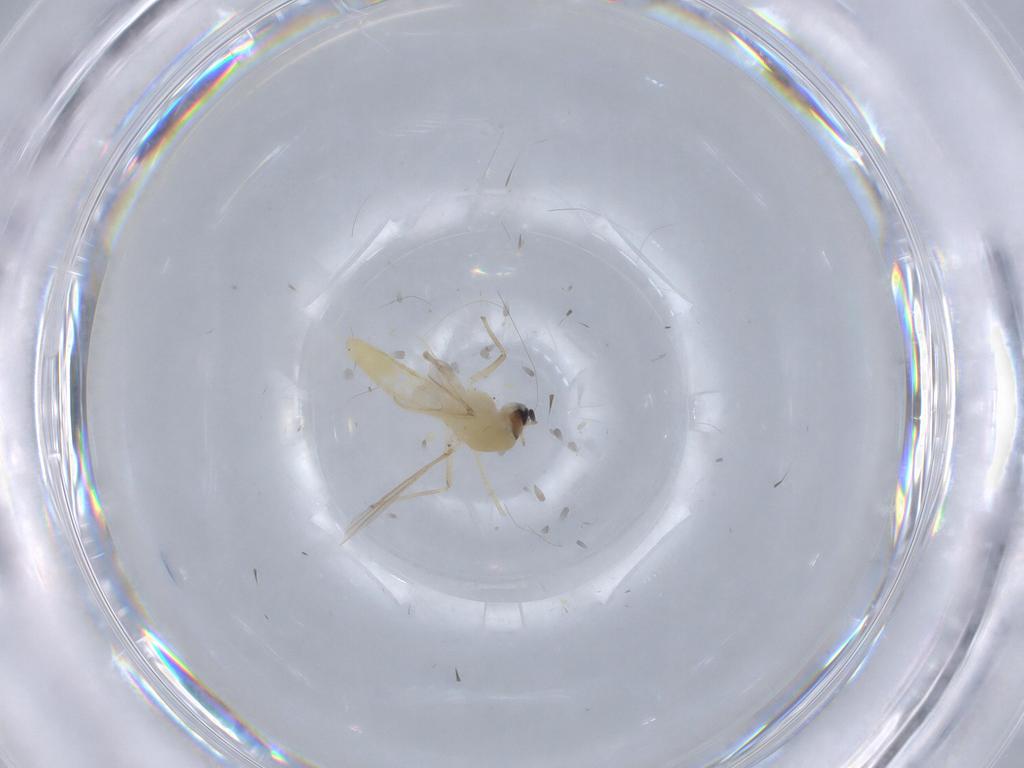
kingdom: Animalia
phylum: Arthropoda
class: Insecta
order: Diptera
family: Chironomidae
